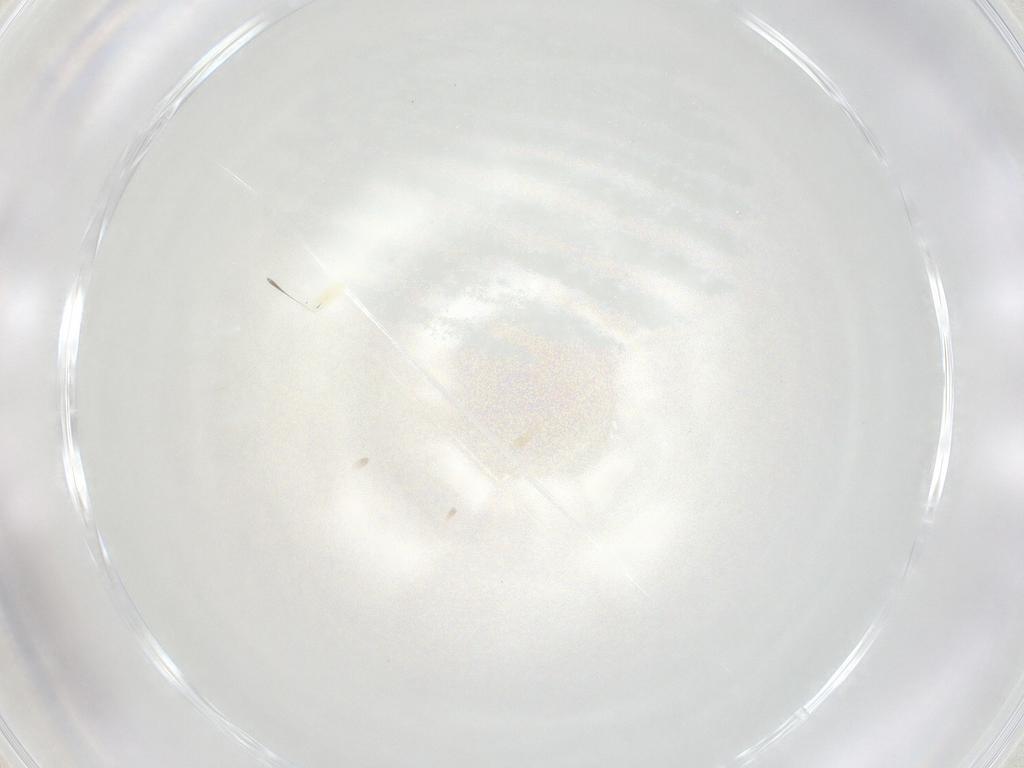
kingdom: Animalia
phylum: Arthropoda
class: Arachnida
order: Trombidiformes
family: Eupodidae
